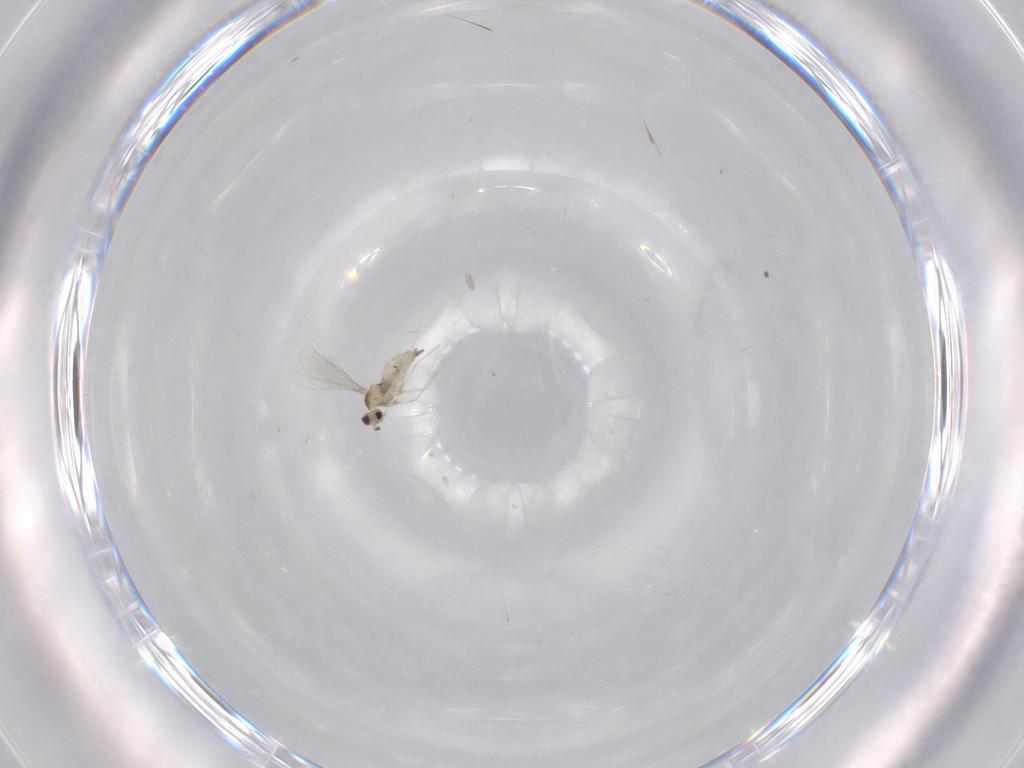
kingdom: Animalia
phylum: Arthropoda
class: Insecta
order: Diptera
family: Cecidomyiidae
